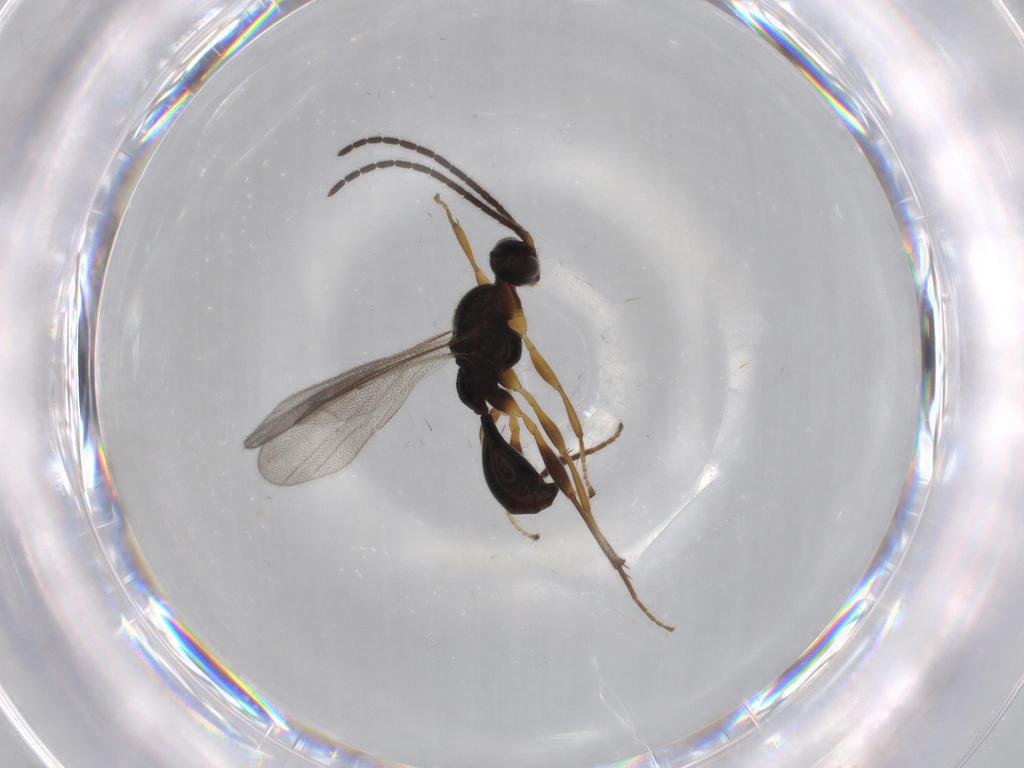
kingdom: Animalia
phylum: Arthropoda
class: Insecta
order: Hymenoptera
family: Proctotrupidae
